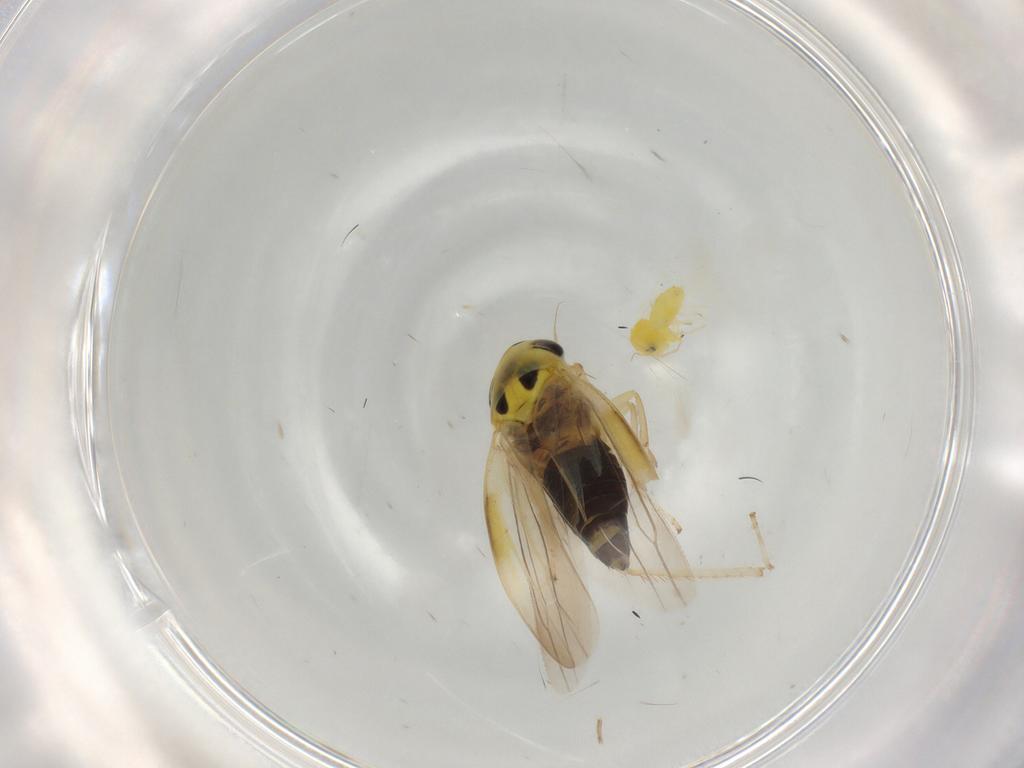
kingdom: Animalia
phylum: Arthropoda
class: Insecta
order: Hemiptera
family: Cicadellidae
